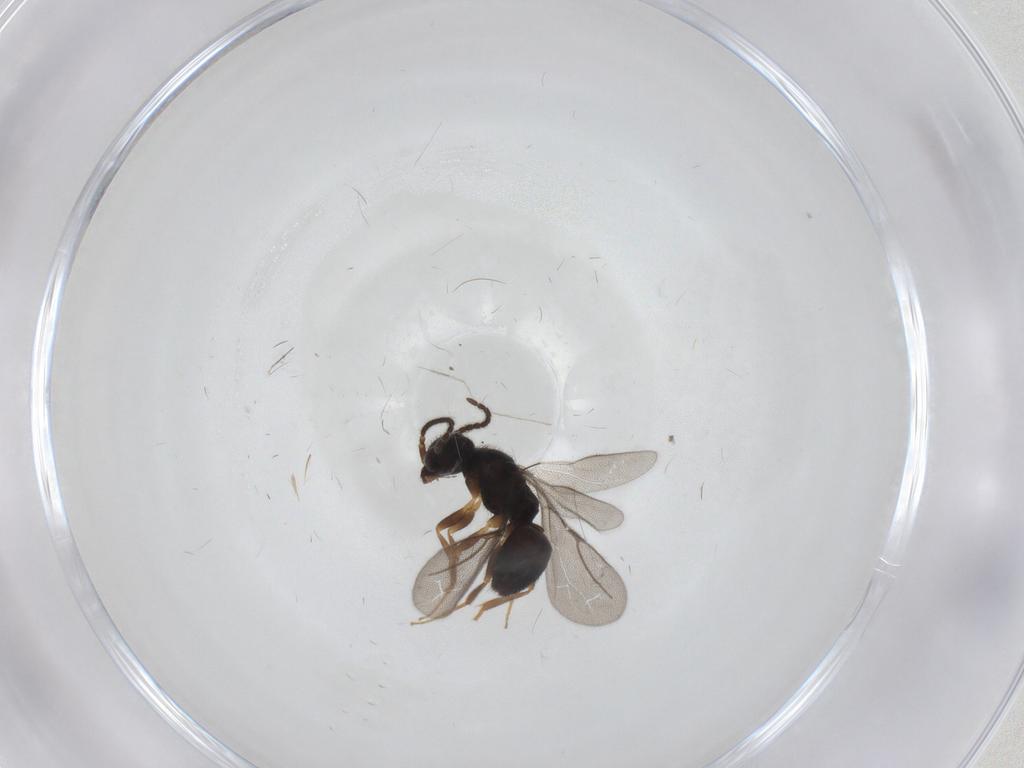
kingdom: Animalia
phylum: Arthropoda
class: Insecta
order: Hymenoptera
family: Bethylidae
